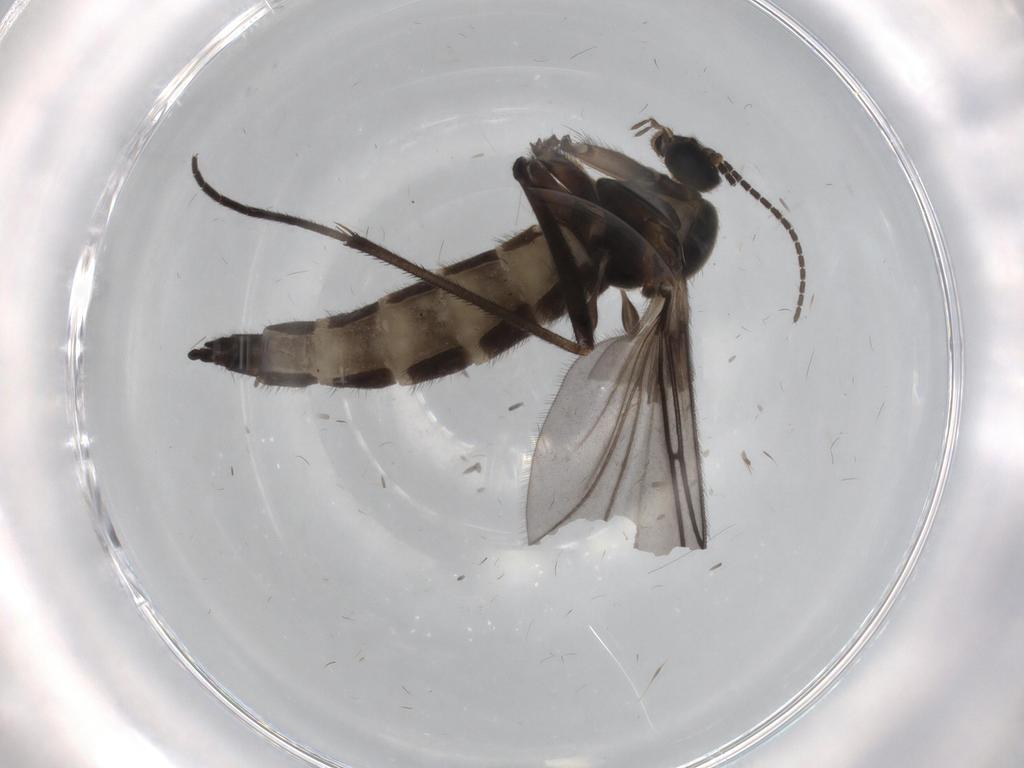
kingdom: Animalia
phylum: Arthropoda
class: Insecta
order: Diptera
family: Sciaridae
